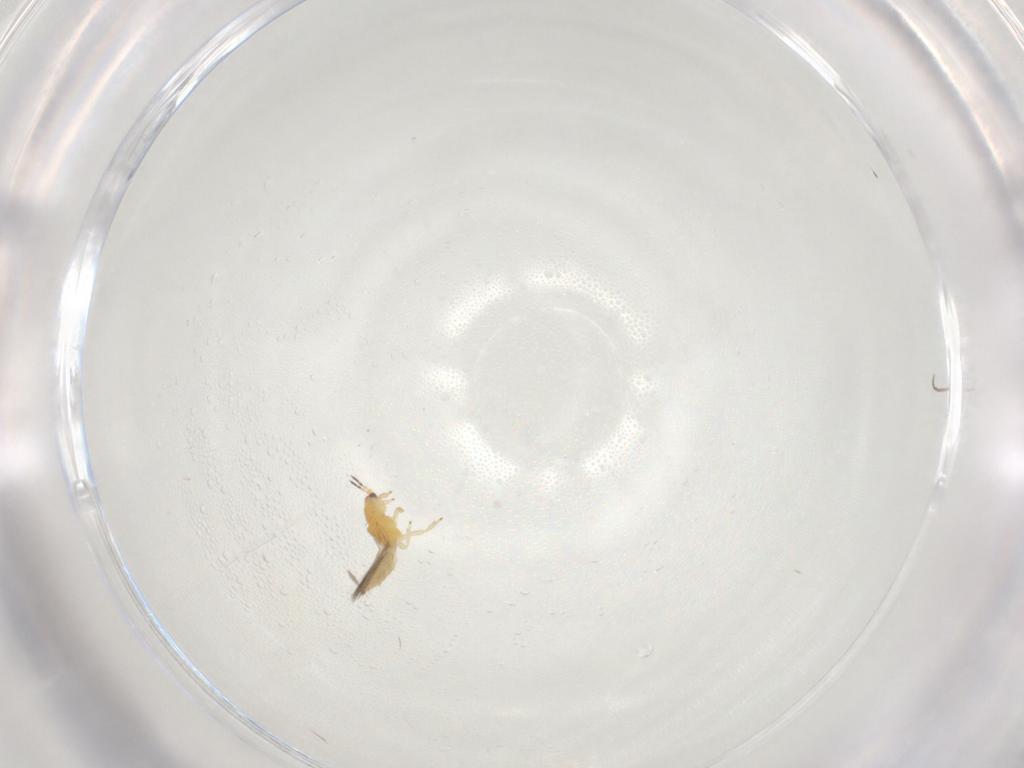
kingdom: Animalia
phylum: Arthropoda
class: Insecta
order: Thysanoptera
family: Thripidae
